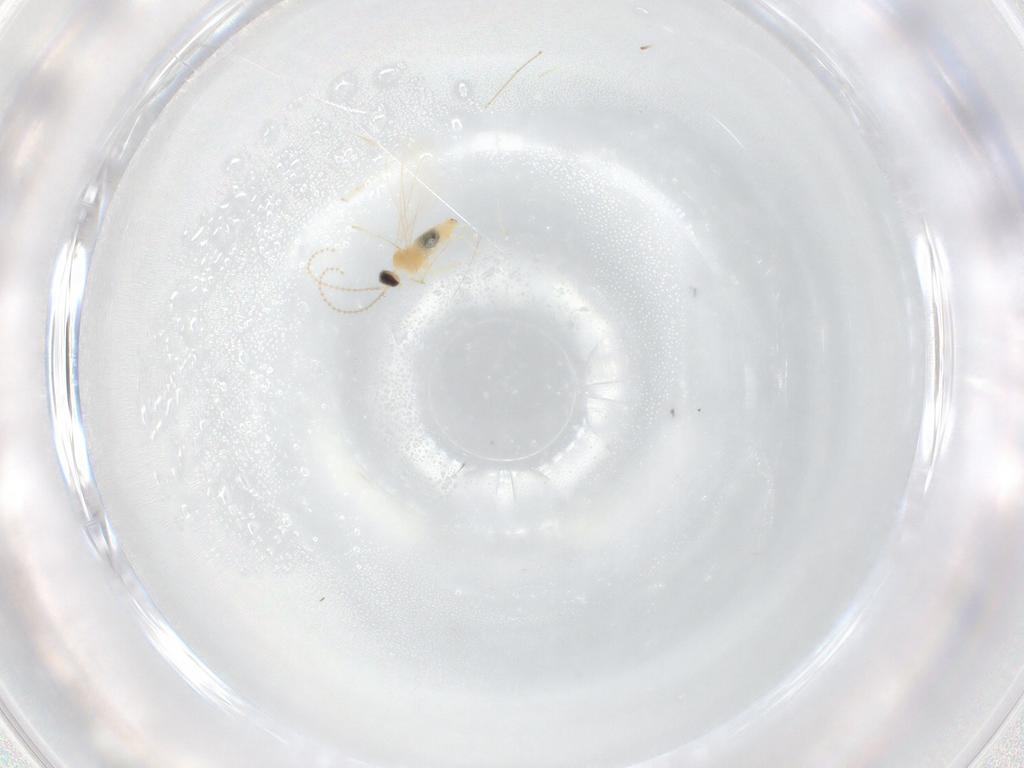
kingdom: Animalia
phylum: Arthropoda
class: Insecta
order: Diptera
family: Cecidomyiidae
